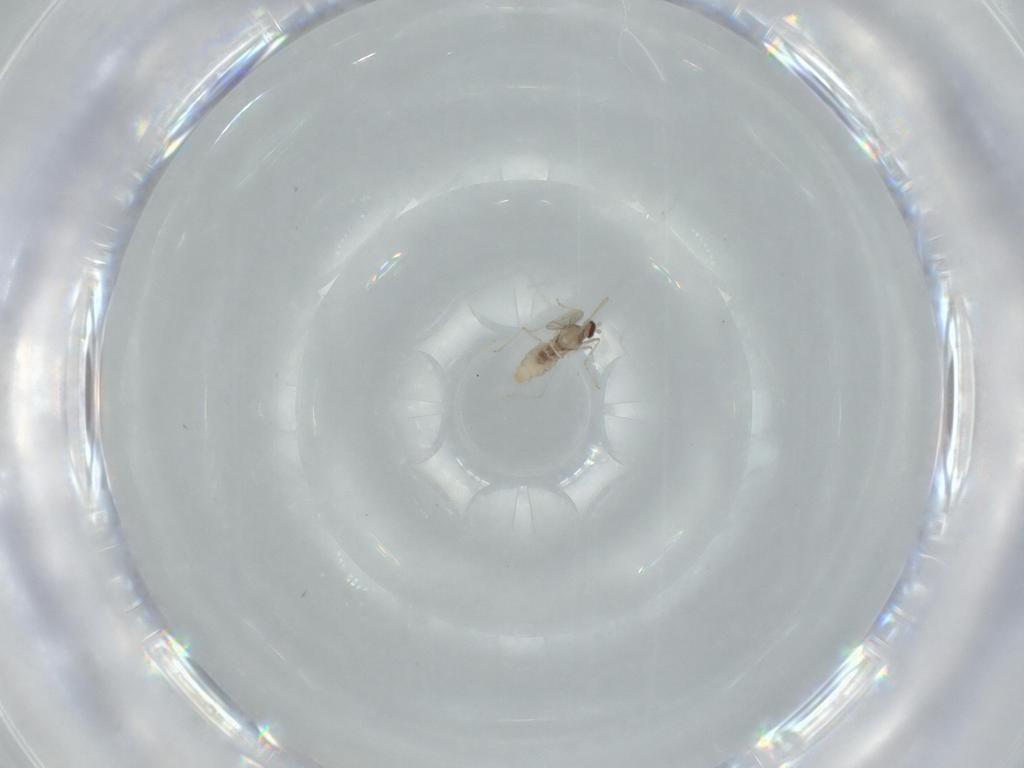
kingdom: Animalia
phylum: Arthropoda
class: Insecta
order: Diptera
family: Cecidomyiidae
